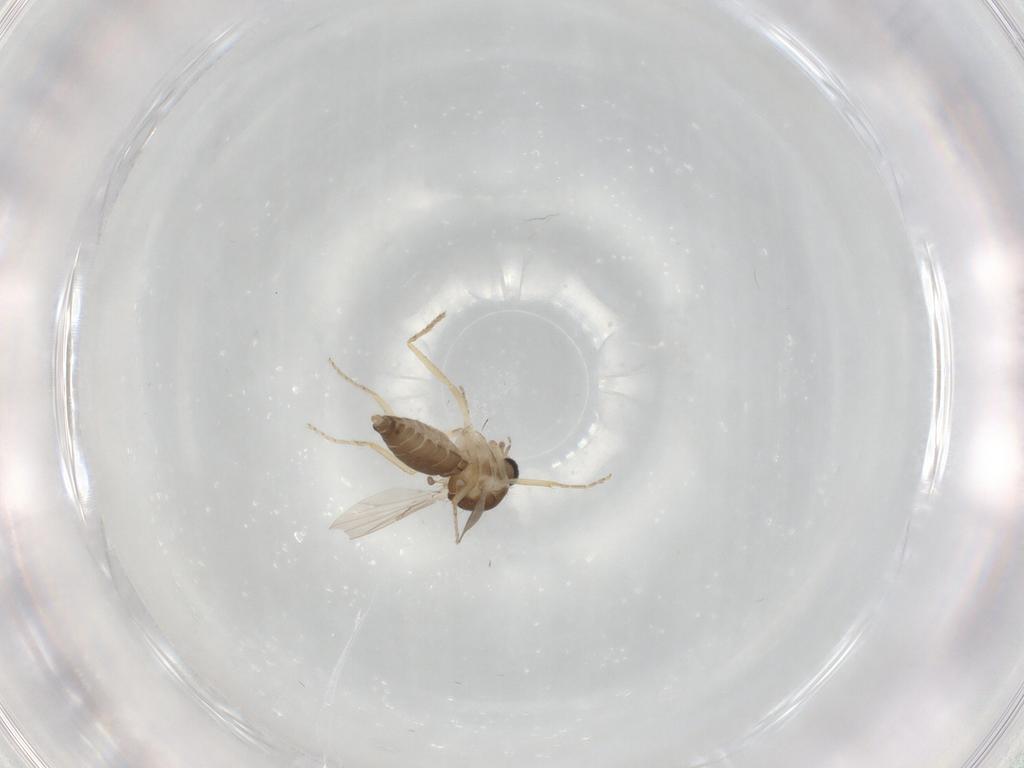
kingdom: Animalia
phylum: Arthropoda
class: Insecta
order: Diptera
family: Ceratopogonidae
